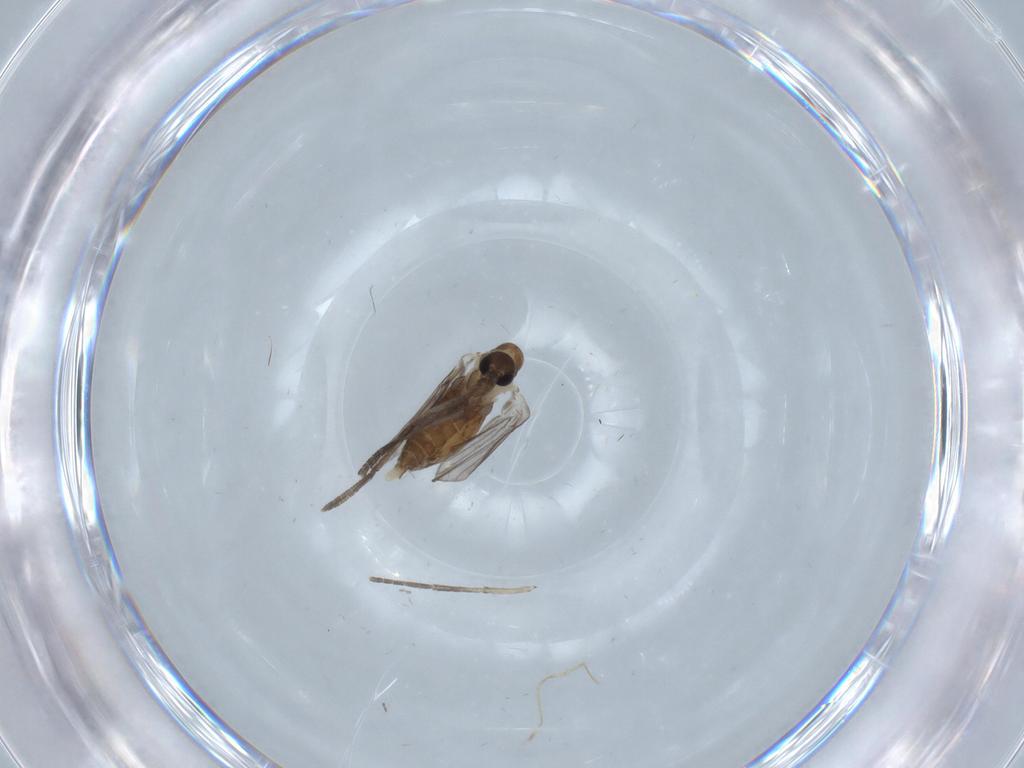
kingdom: Animalia
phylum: Arthropoda
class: Insecta
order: Diptera
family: Psychodidae
